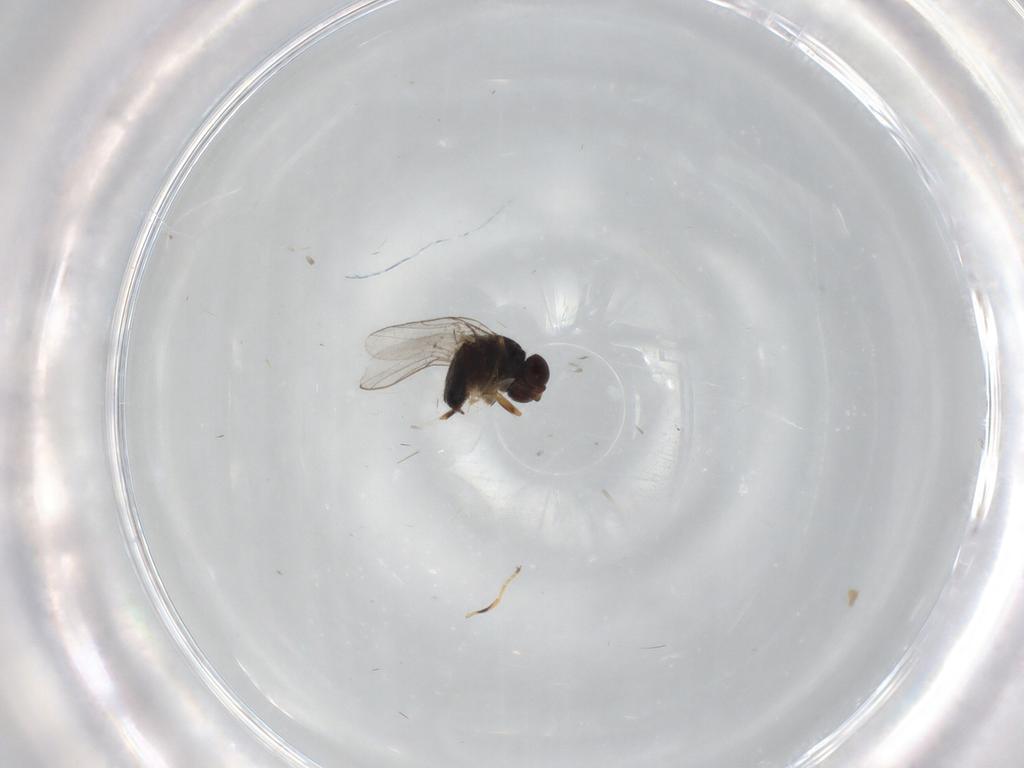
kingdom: Animalia
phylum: Arthropoda
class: Insecta
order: Diptera
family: Chloropidae
